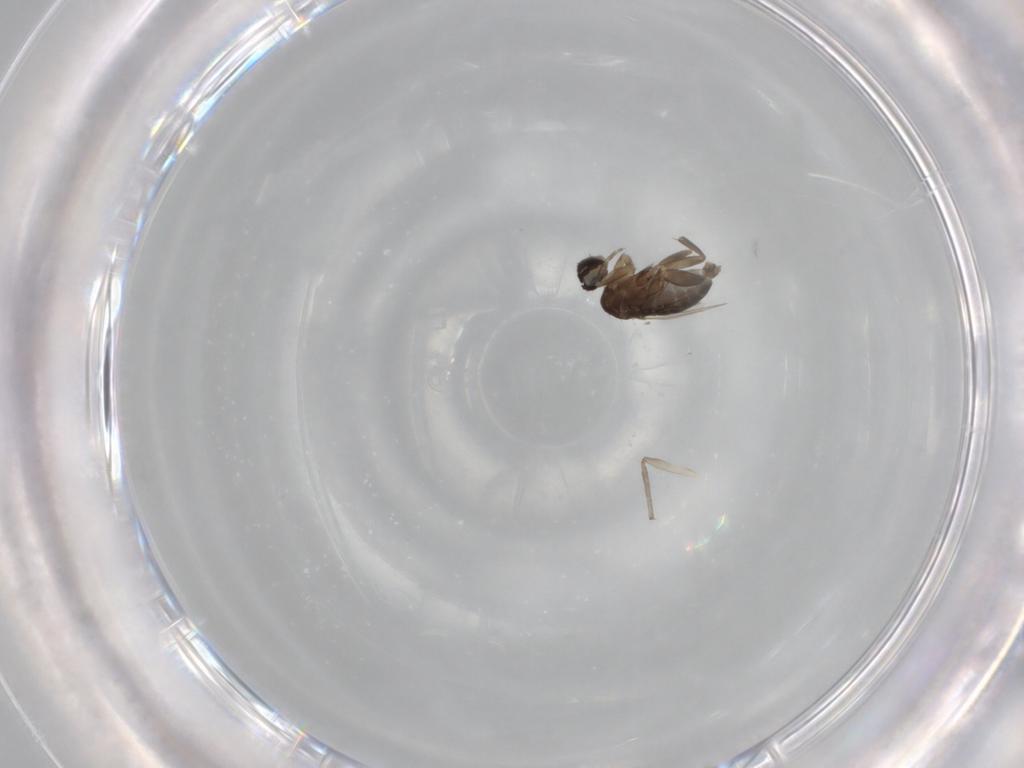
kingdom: Animalia
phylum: Arthropoda
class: Insecta
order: Diptera
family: Chironomidae
